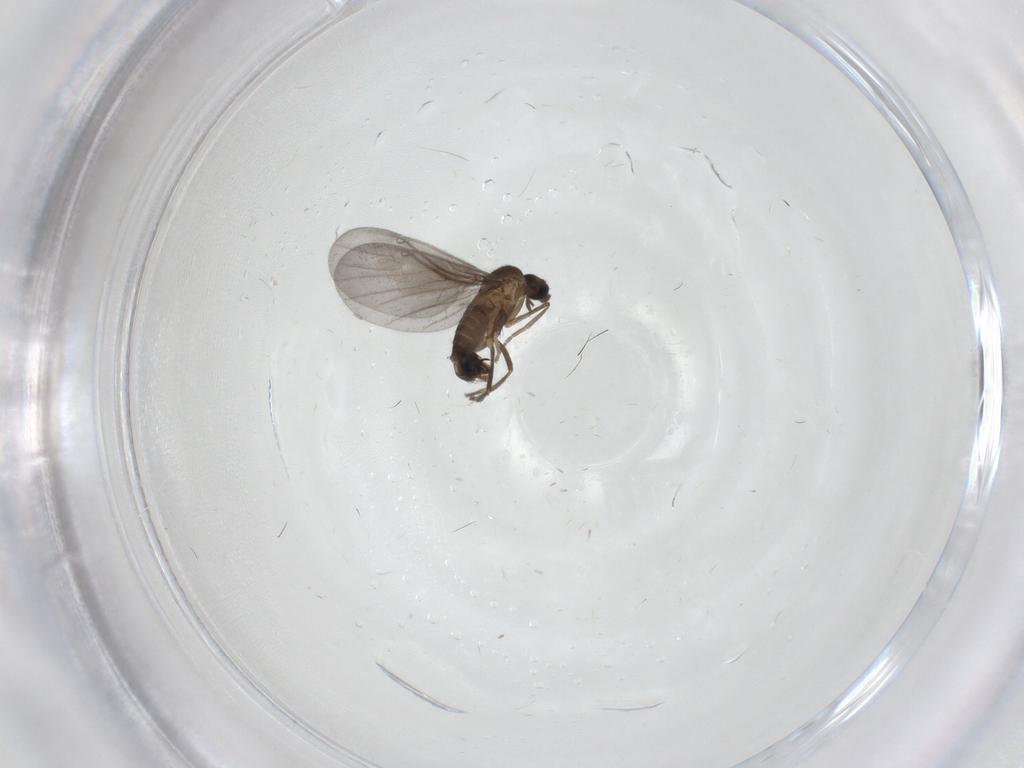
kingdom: Animalia
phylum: Arthropoda
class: Insecta
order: Diptera
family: Phoridae
